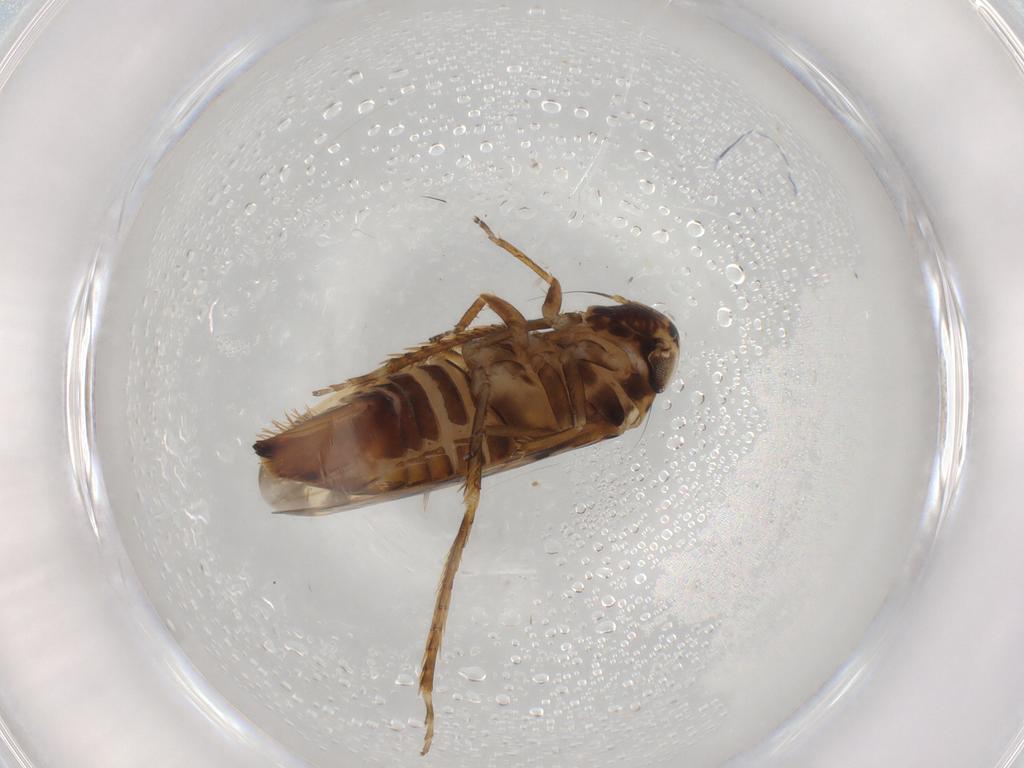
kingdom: Animalia
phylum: Arthropoda
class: Insecta
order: Hemiptera
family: Cicadellidae
